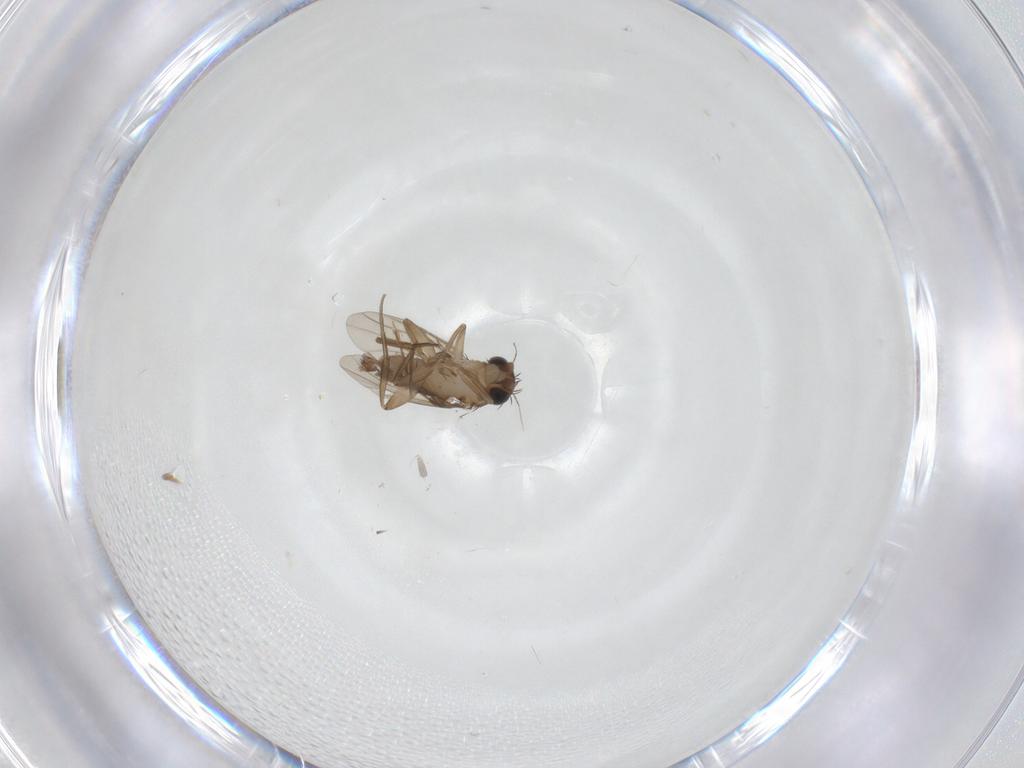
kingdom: Animalia
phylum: Arthropoda
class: Insecta
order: Diptera
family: Phoridae
